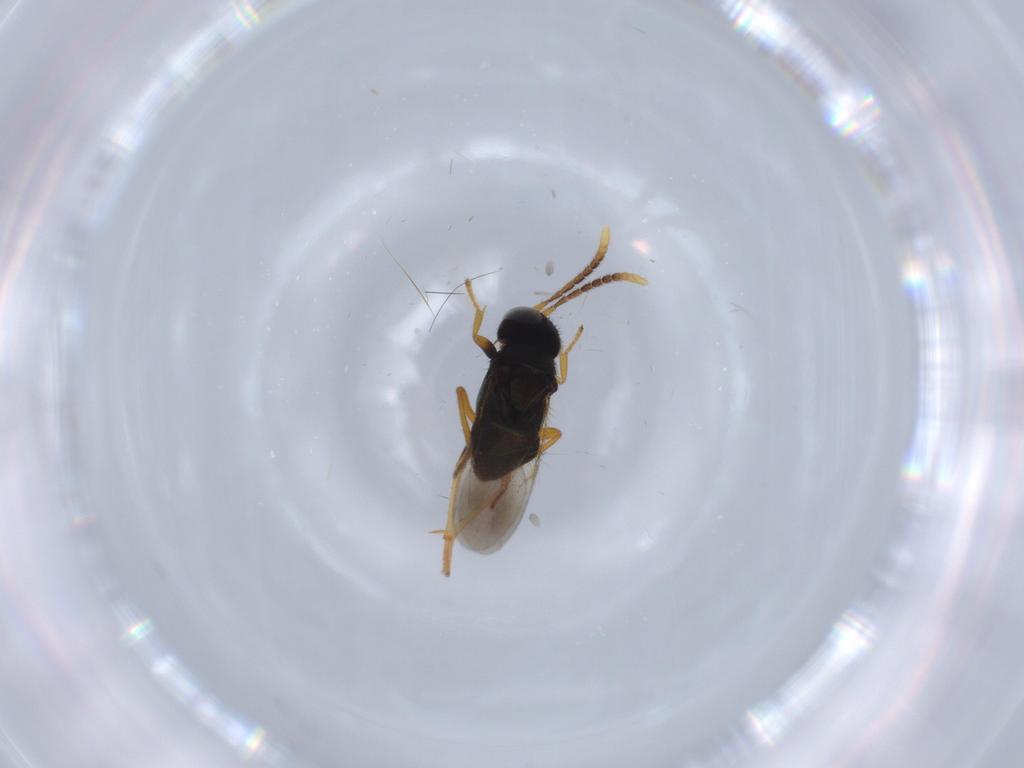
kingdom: Animalia
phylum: Arthropoda
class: Insecta
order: Hymenoptera
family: Encyrtidae
